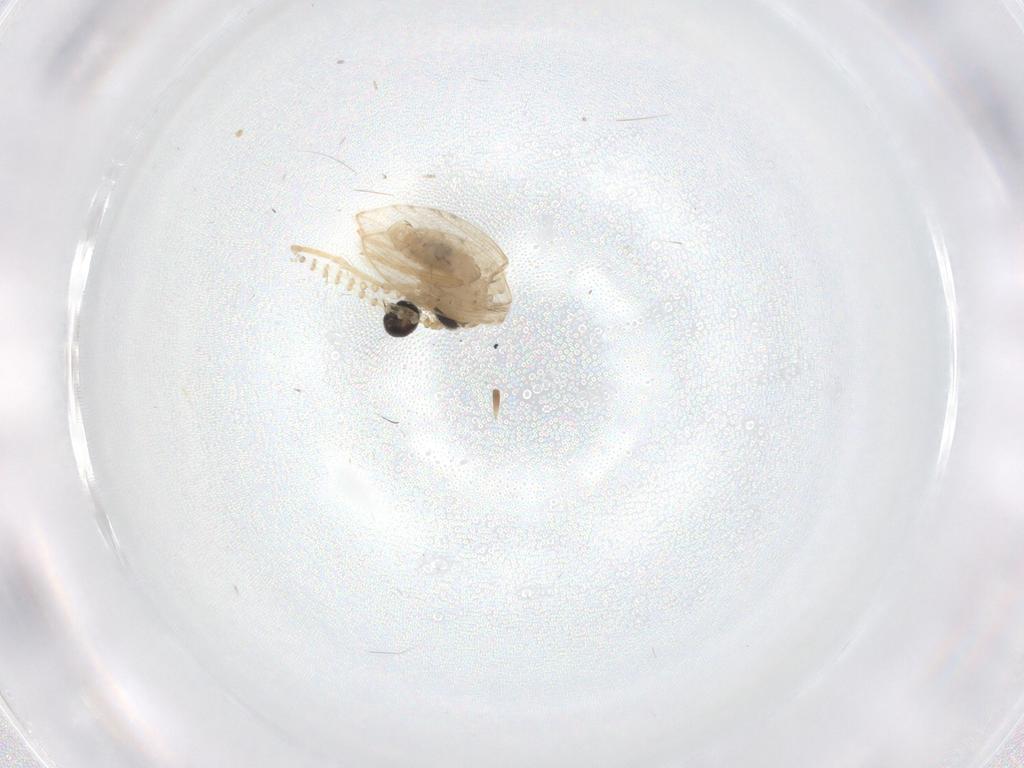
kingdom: Animalia
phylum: Arthropoda
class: Insecta
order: Diptera
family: Psychodidae
